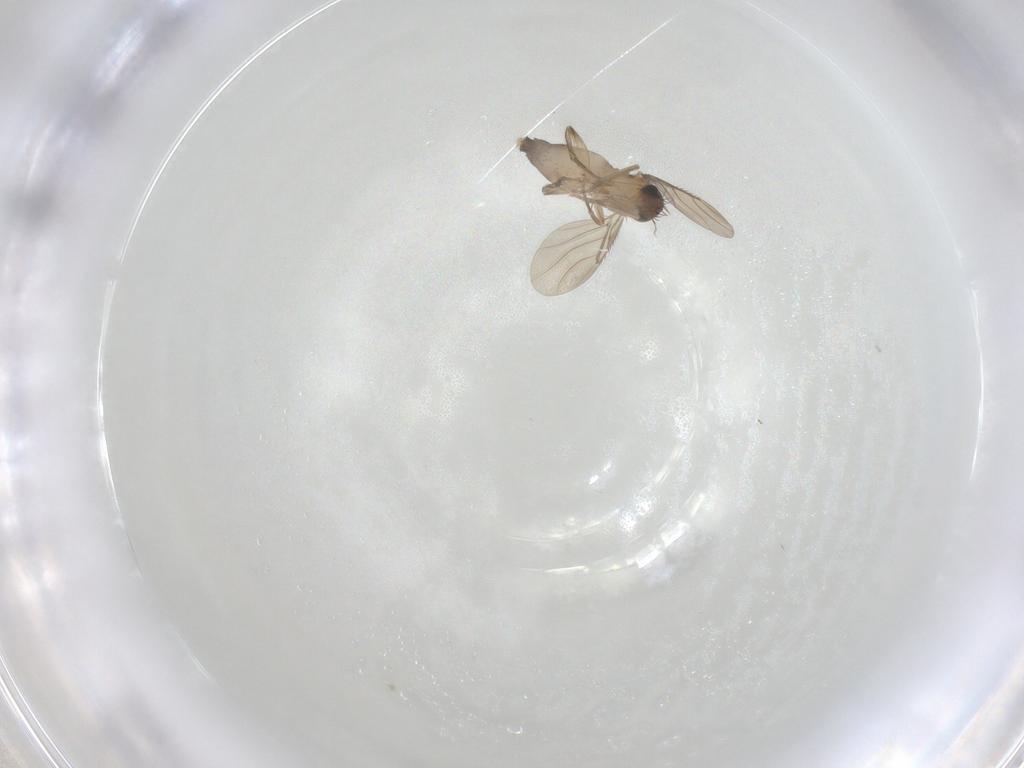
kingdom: Animalia
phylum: Arthropoda
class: Insecta
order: Diptera
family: Phoridae
